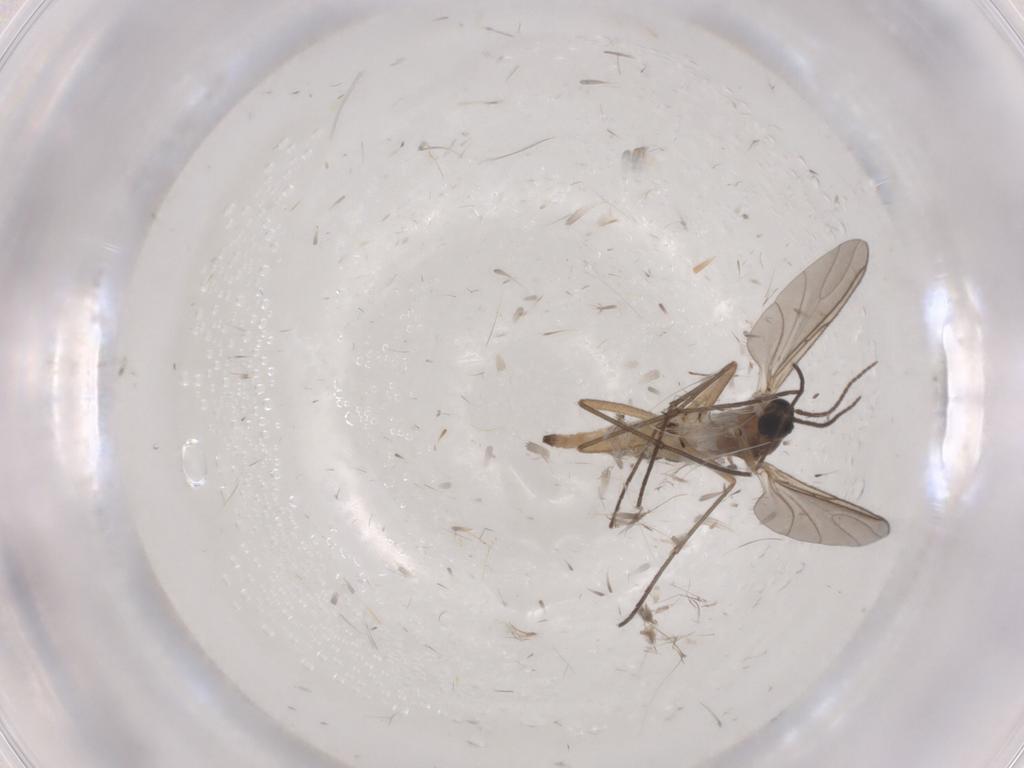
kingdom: Animalia
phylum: Arthropoda
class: Insecta
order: Diptera
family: Sciaridae
